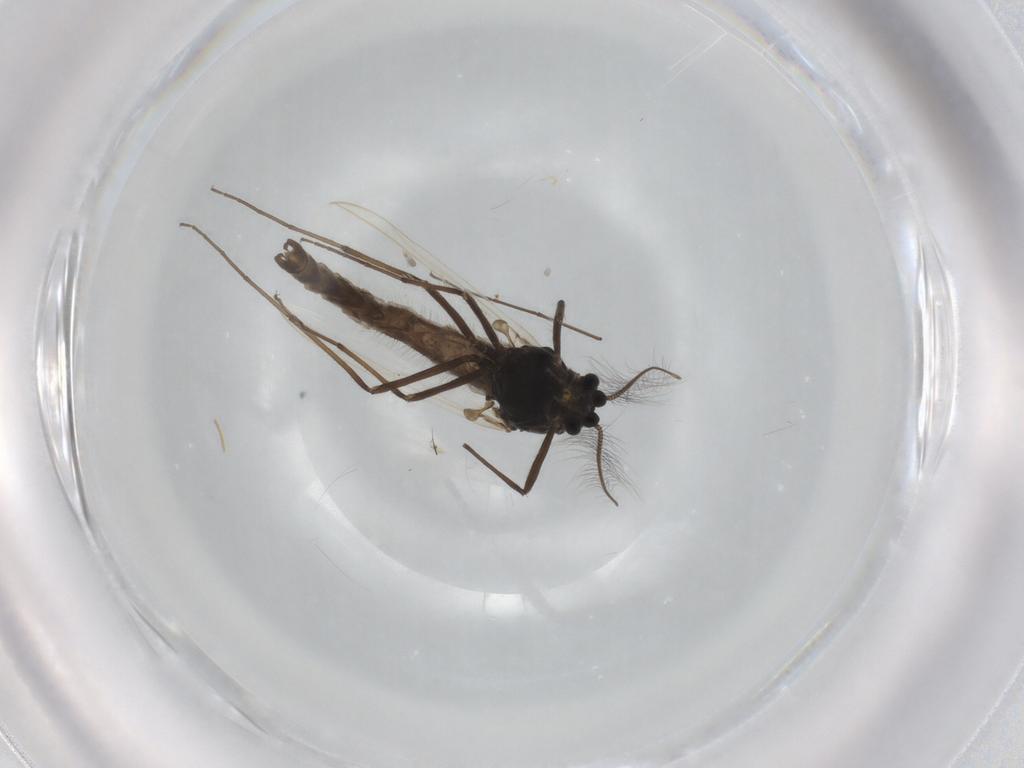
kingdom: Animalia
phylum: Arthropoda
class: Insecta
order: Diptera
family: Chironomidae
